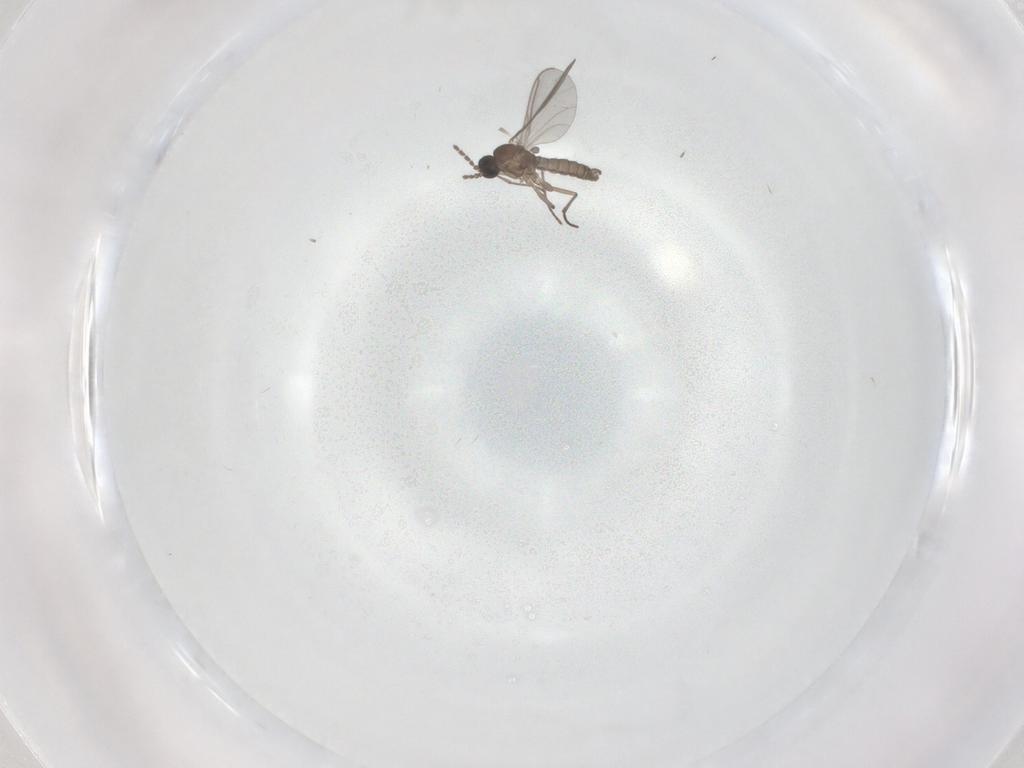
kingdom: Animalia
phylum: Arthropoda
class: Insecta
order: Diptera
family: Sciaridae
